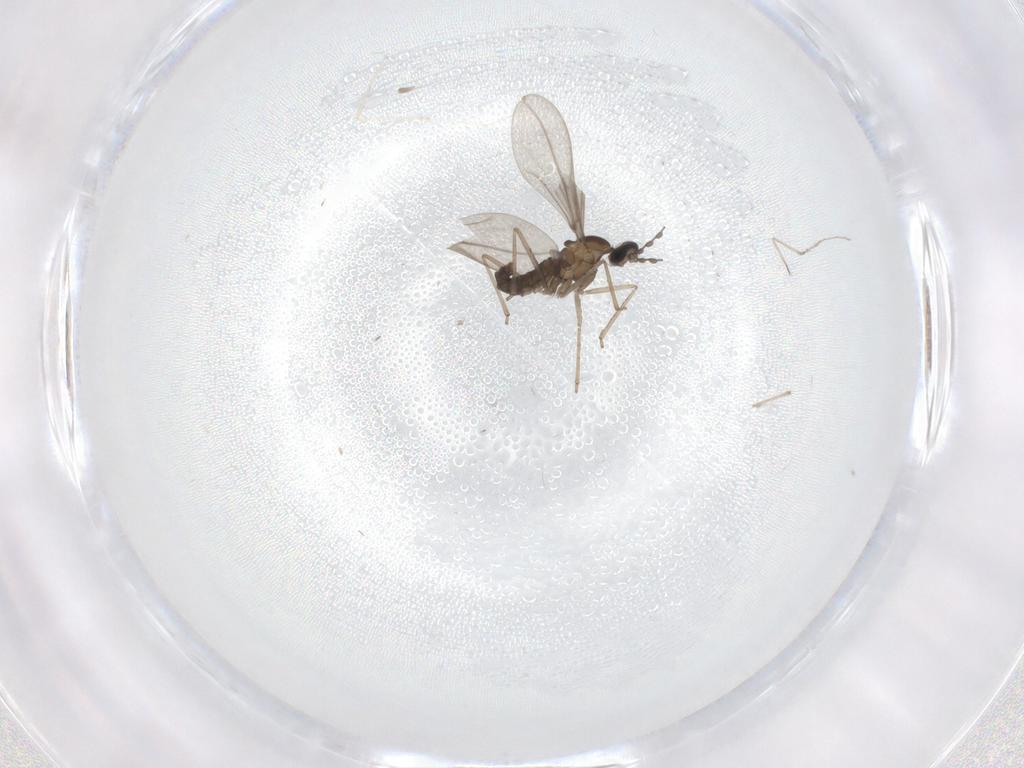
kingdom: Animalia
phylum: Arthropoda
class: Insecta
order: Diptera
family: Cecidomyiidae
